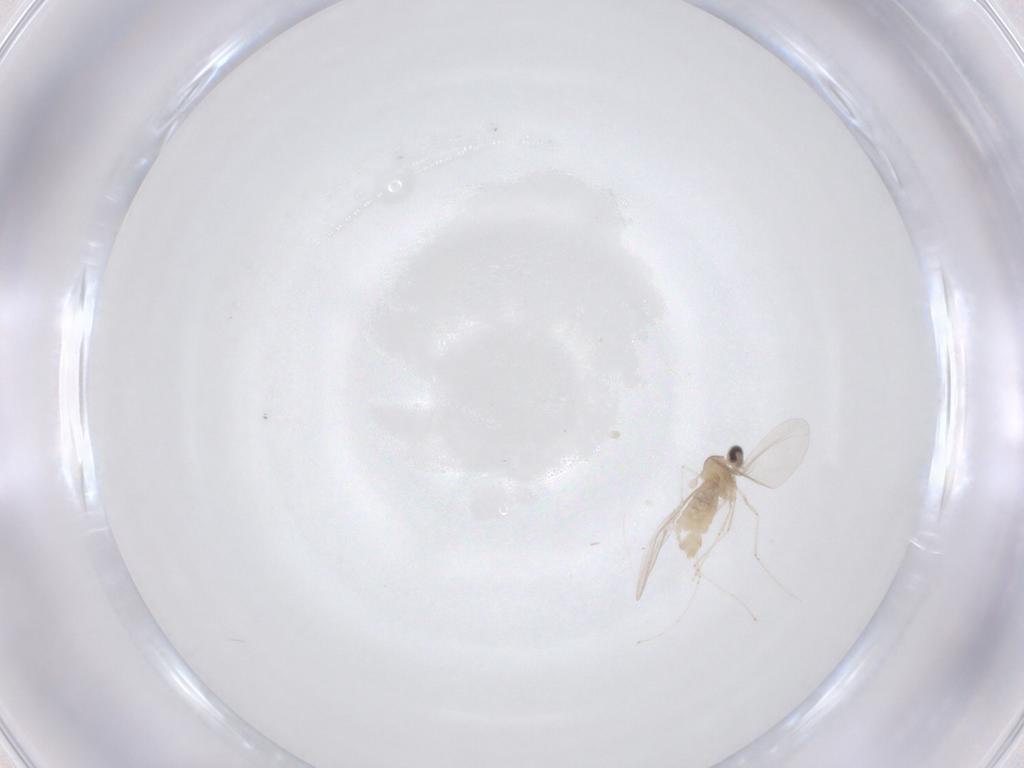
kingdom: Animalia
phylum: Arthropoda
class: Insecta
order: Diptera
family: Cecidomyiidae
